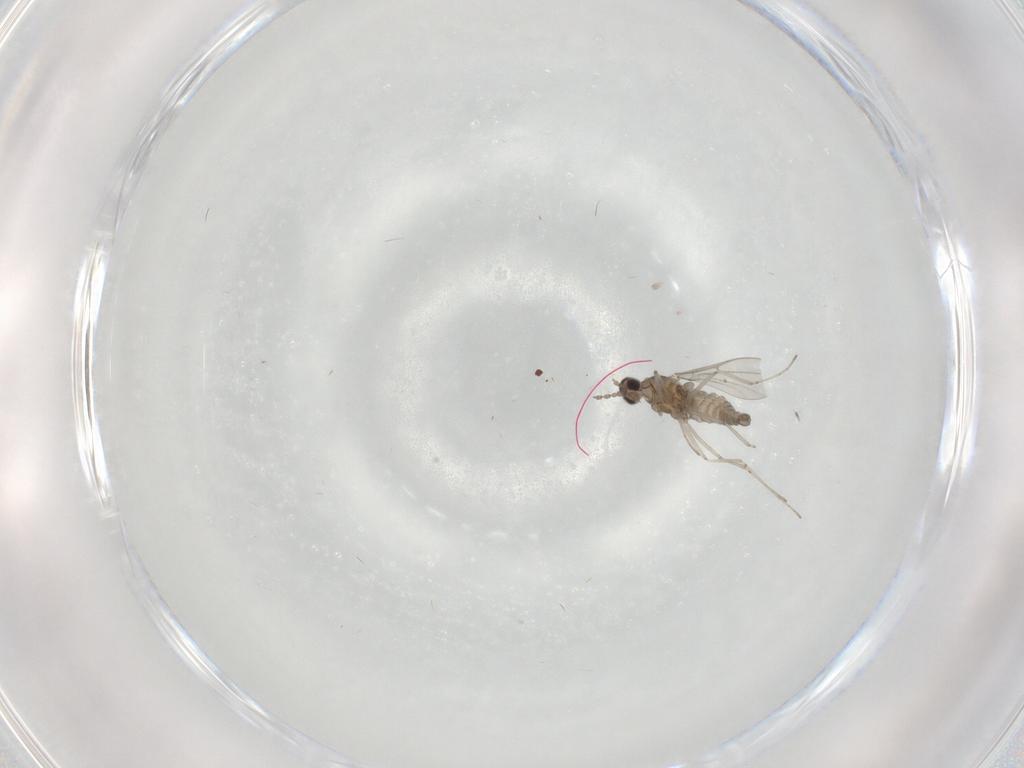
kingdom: Animalia
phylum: Arthropoda
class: Insecta
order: Diptera
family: Cecidomyiidae
